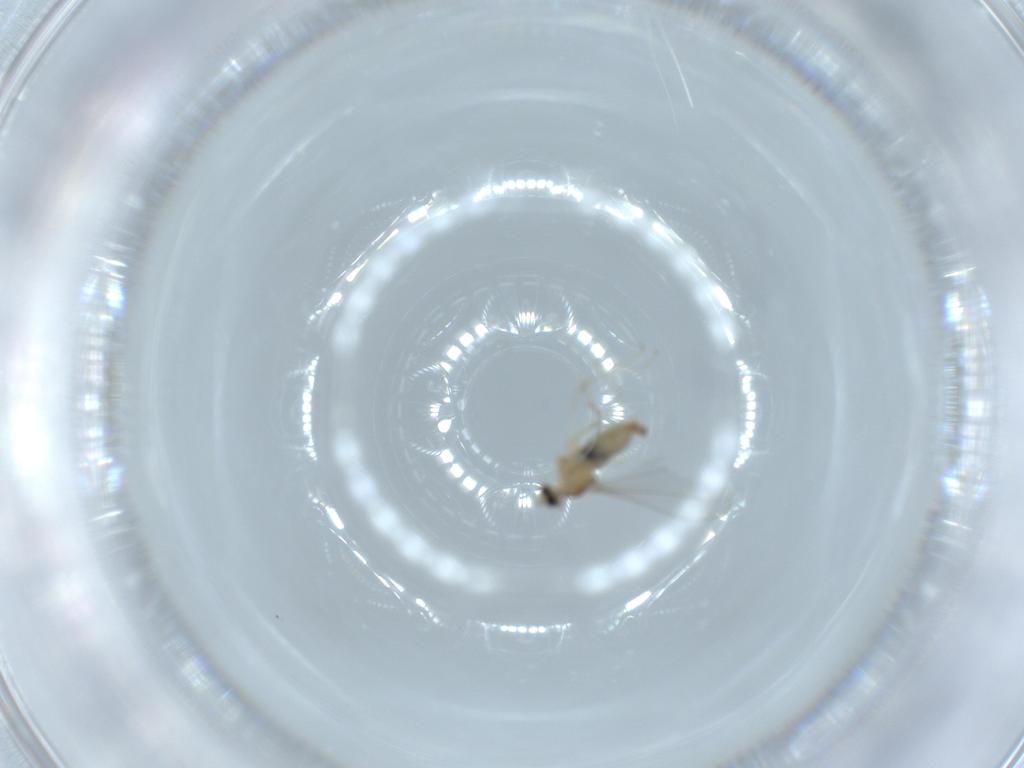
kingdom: Animalia
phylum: Arthropoda
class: Insecta
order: Diptera
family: Cecidomyiidae
